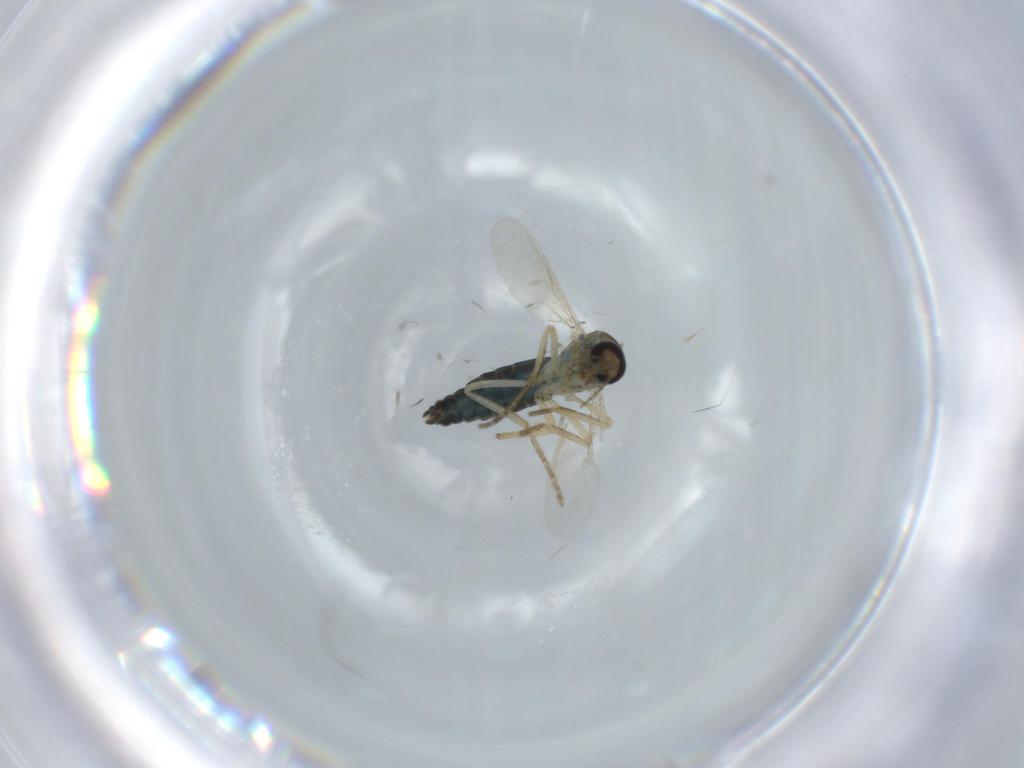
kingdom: Animalia
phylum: Arthropoda
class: Insecta
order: Diptera
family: Ceratopogonidae
